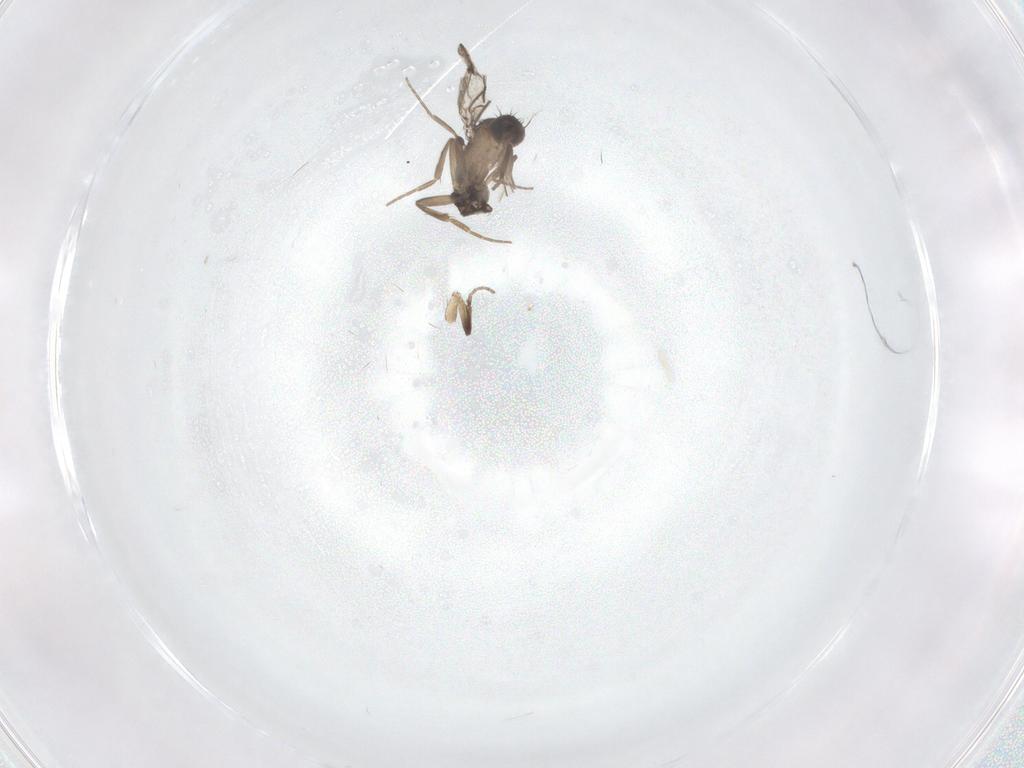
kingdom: Animalia
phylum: Arthropoda
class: Insecta
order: Diptera
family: Phoridae
